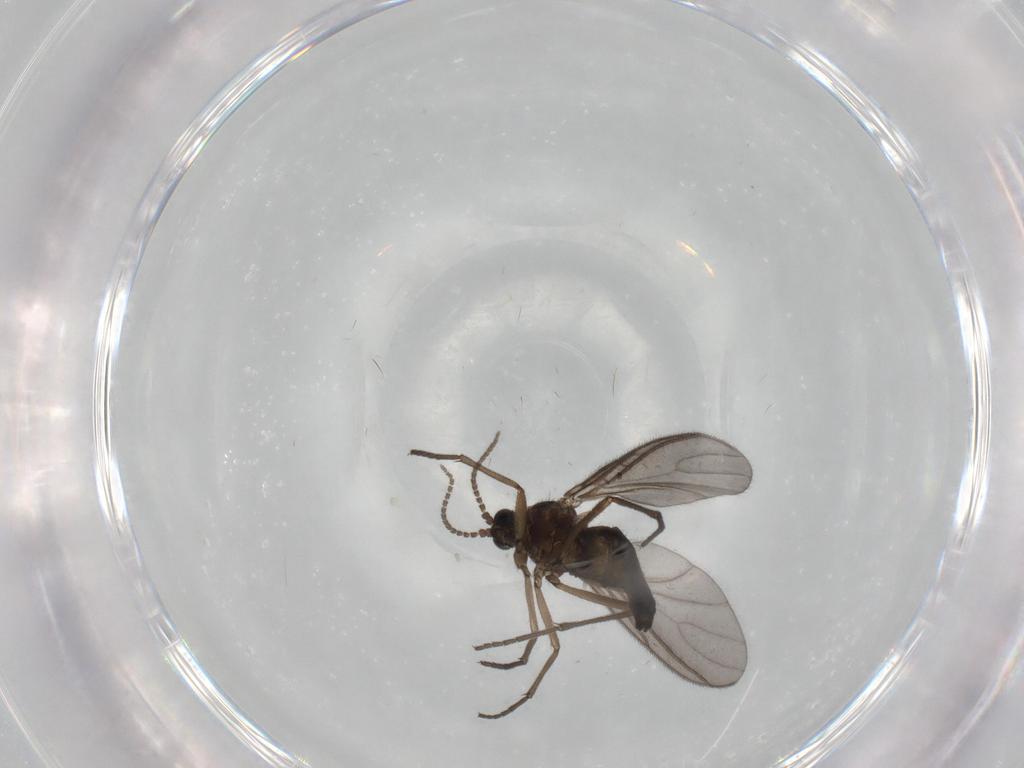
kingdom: Animalia
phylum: Arthropoda
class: Insecta
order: Diptera
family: Sciaridae
